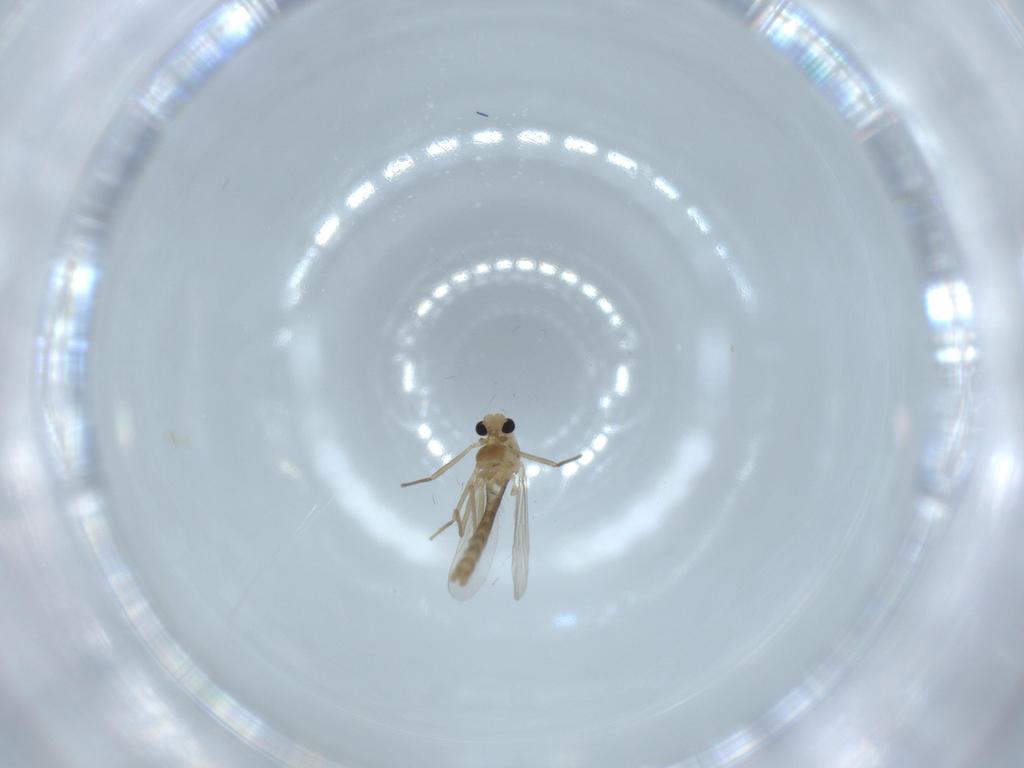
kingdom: Animalia
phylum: Arthropoda
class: Insecta
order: Diptera
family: Chironomidae
